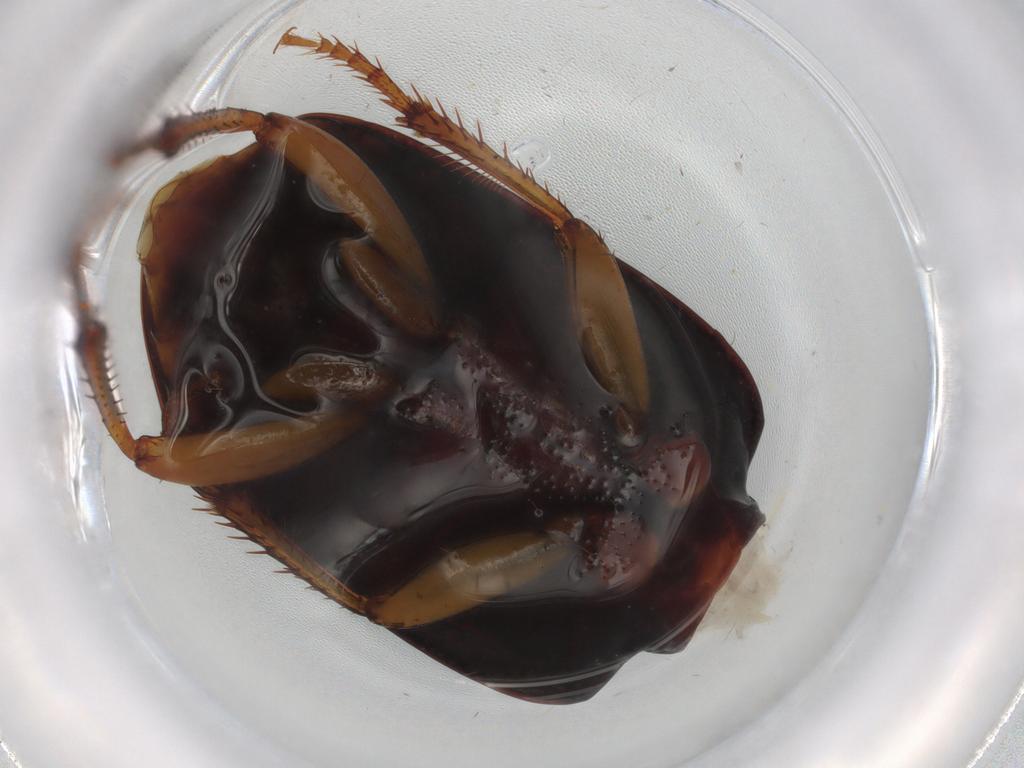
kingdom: Animalia
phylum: Arthropoda
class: Insecta
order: Coleoptera
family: Carabidae
